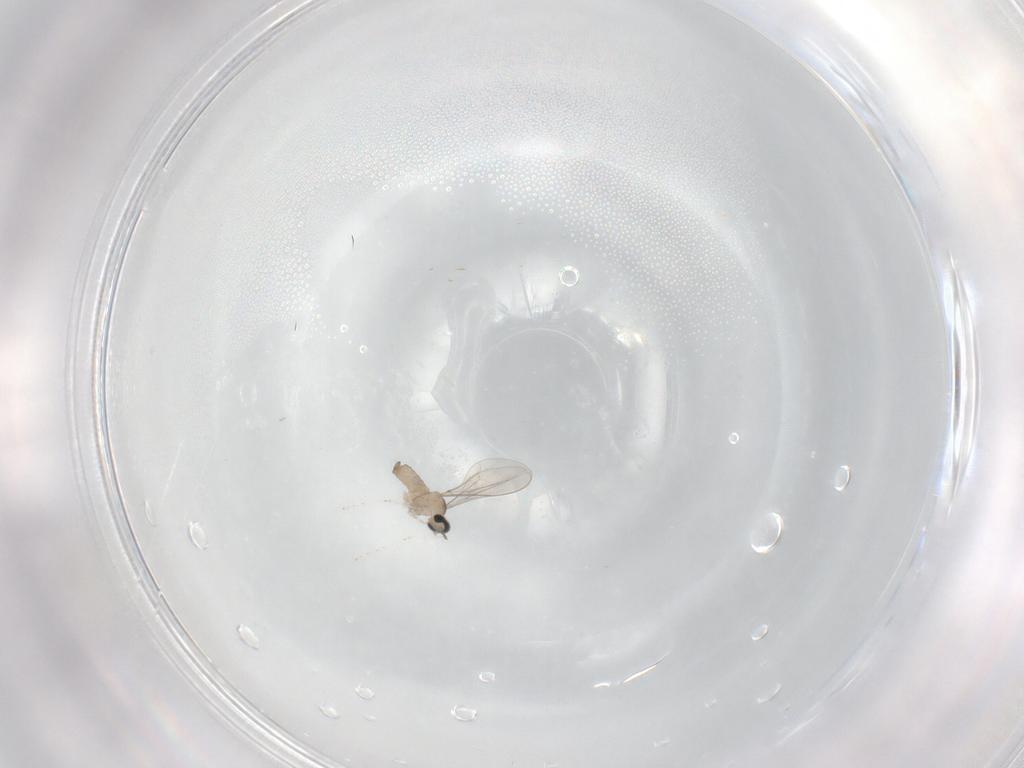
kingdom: Animalia
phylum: Arthropoda
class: Insecta
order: Diptera
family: Cecidomyiidae
